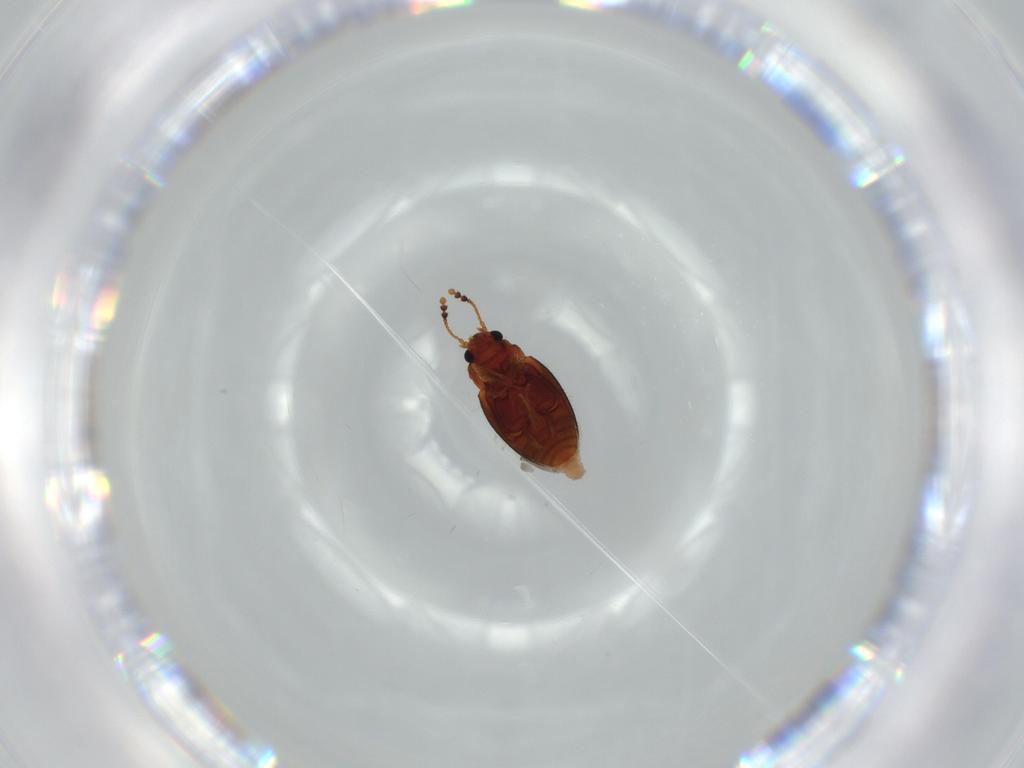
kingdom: Animalia
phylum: Arthropoda
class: Insecta
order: Coleoptera
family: Erotylidae
